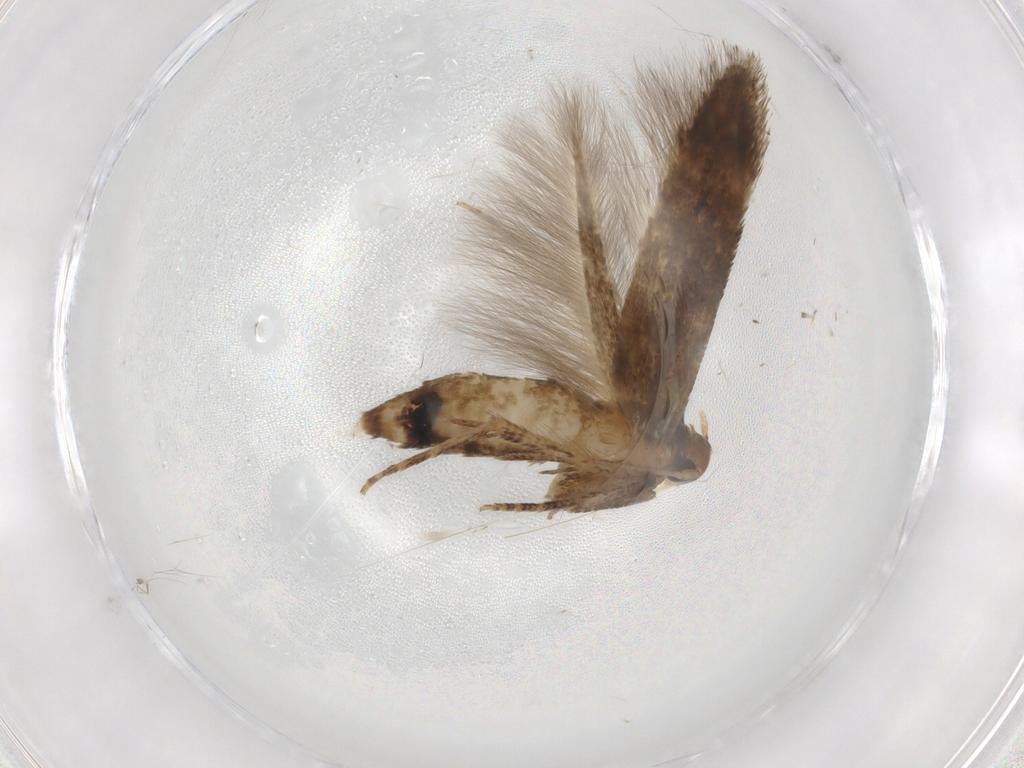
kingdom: Animalia
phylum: Arthropoda
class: Insecta
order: Lepidoptera
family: Cosmopterigidae
